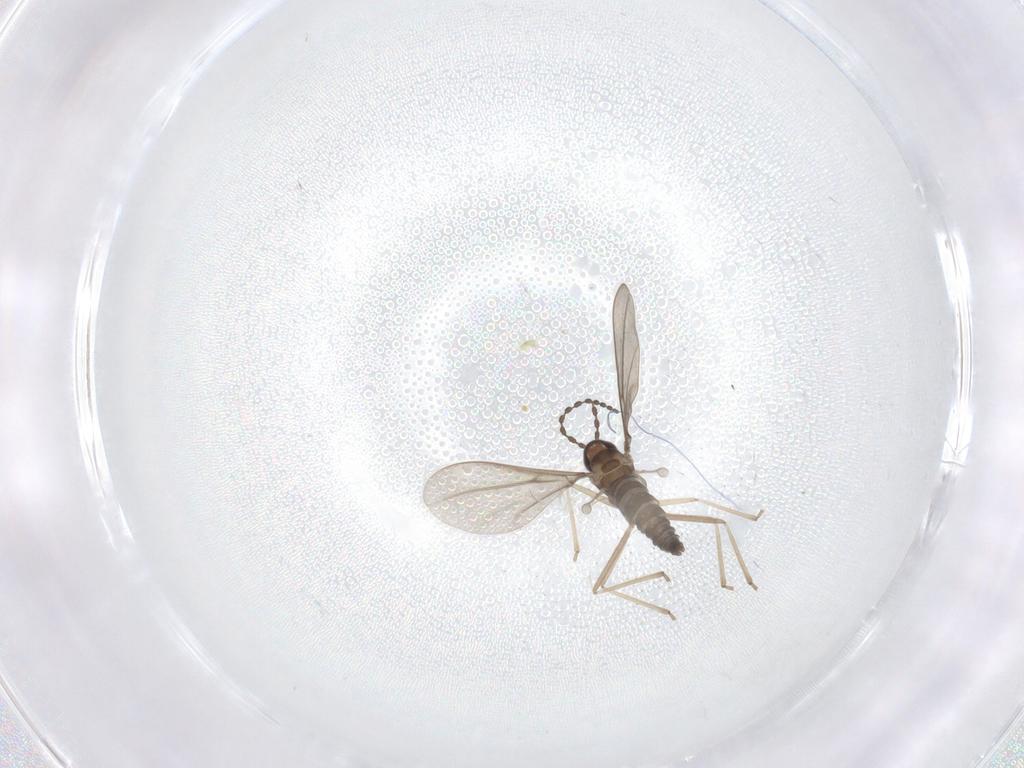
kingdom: Animalia
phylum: Arthropoda
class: Insecta
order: Diptera
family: Cecidomyiidae
